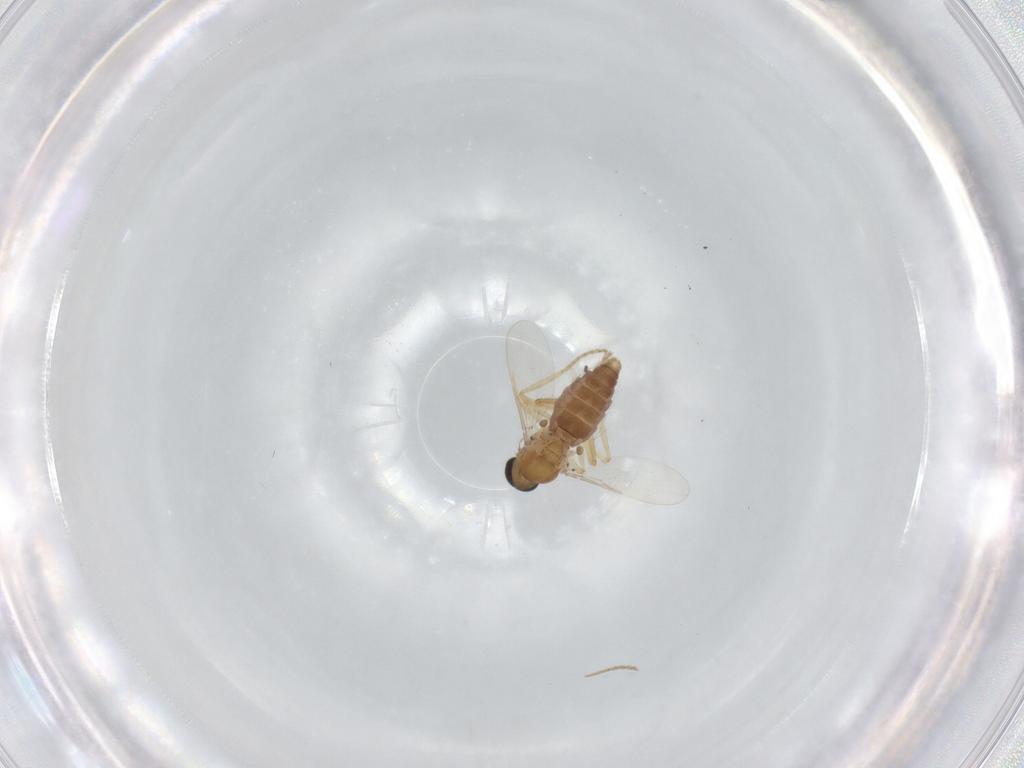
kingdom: Animalia
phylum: Arthropoda
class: Insecta
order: Diptera
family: Ceratopogonidae
